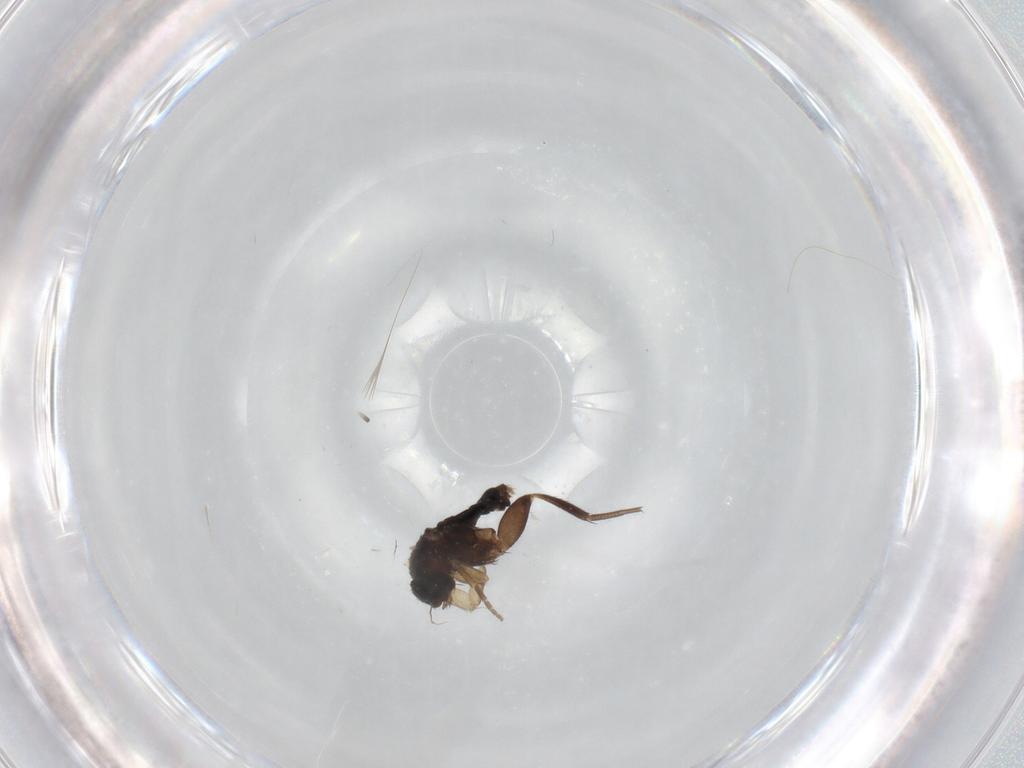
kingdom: Animalia
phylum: Arthropoda
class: Insecta
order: Diptera
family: Phoridae
